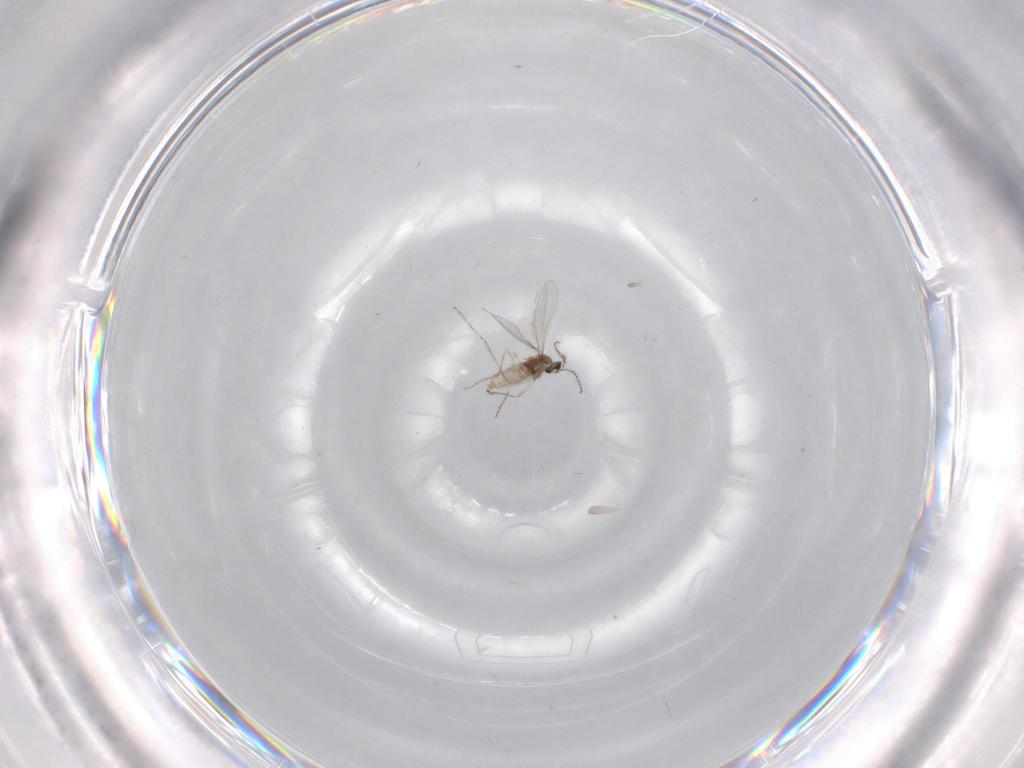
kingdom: Animalia
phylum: Arthropoda
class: Insecta
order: Diptera
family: Cecidomyiidae
